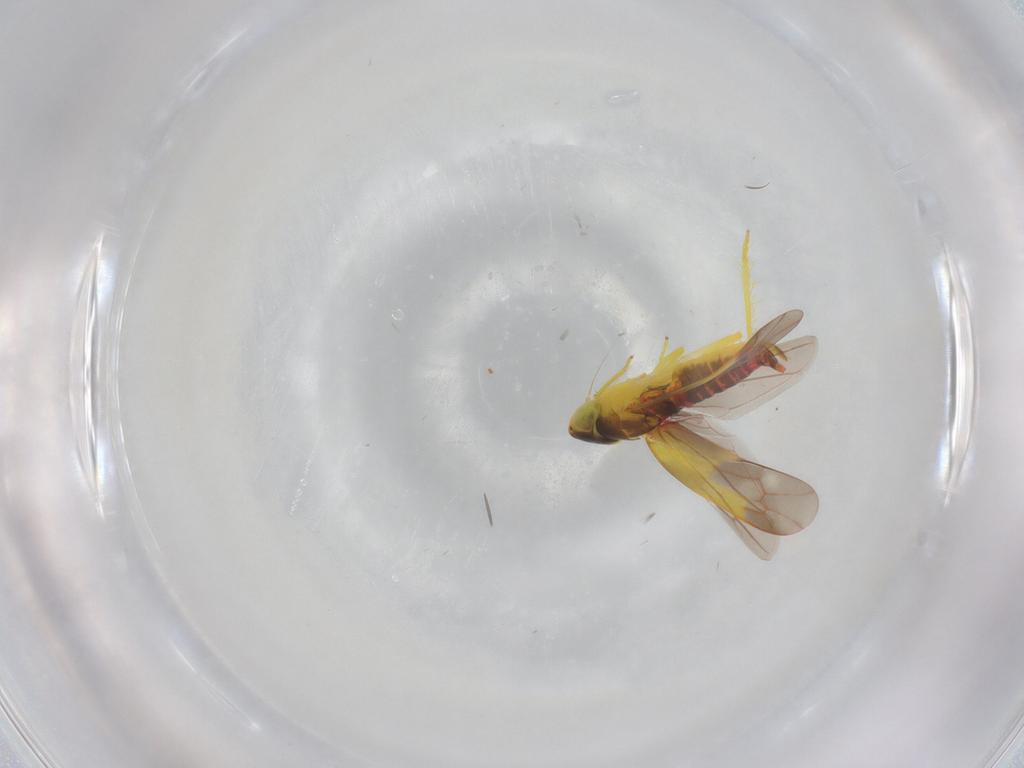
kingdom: Animalia
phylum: Arthropoda
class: Insecta
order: Hemiptera
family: Cicadellidae
